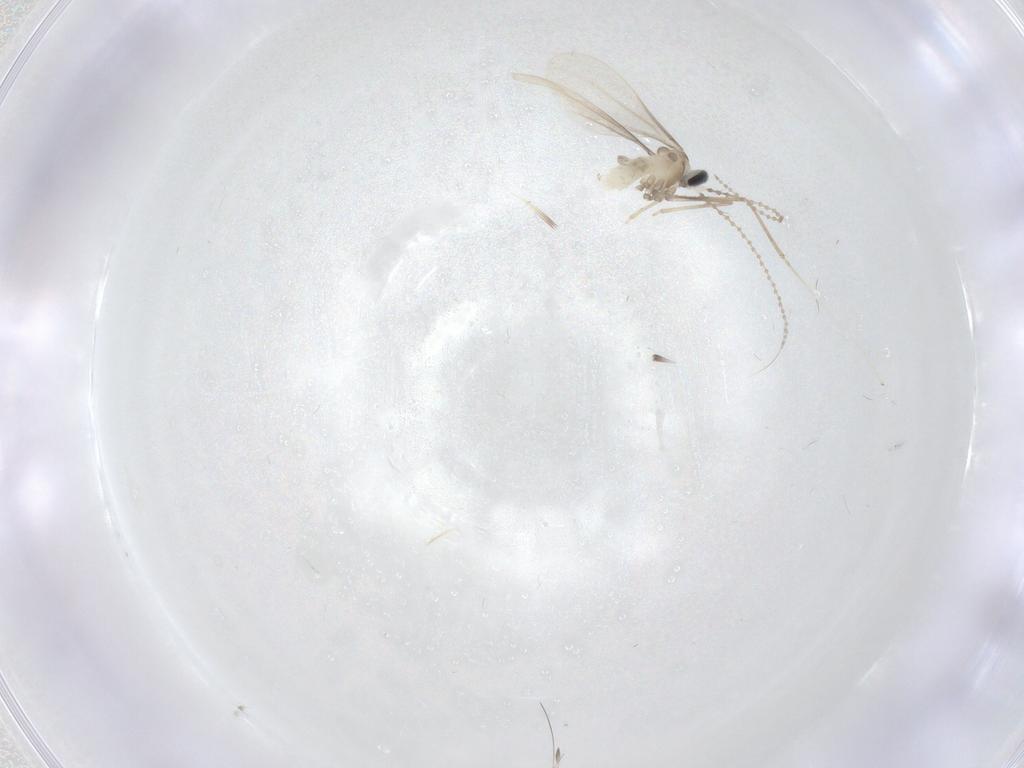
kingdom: Animalia
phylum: Arthropoda
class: Insecta
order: Diptera
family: Cecidomyiidae
